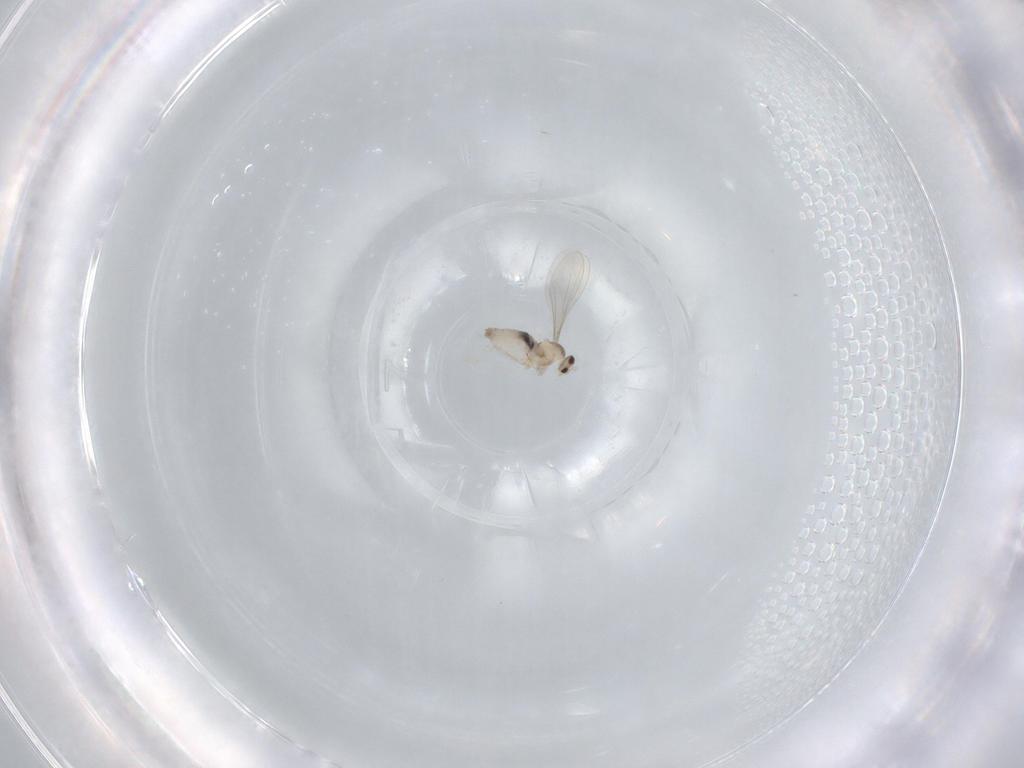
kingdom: Animalia
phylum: Arthropoda
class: Insecta
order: Diptera
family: Cecidomyiidae
